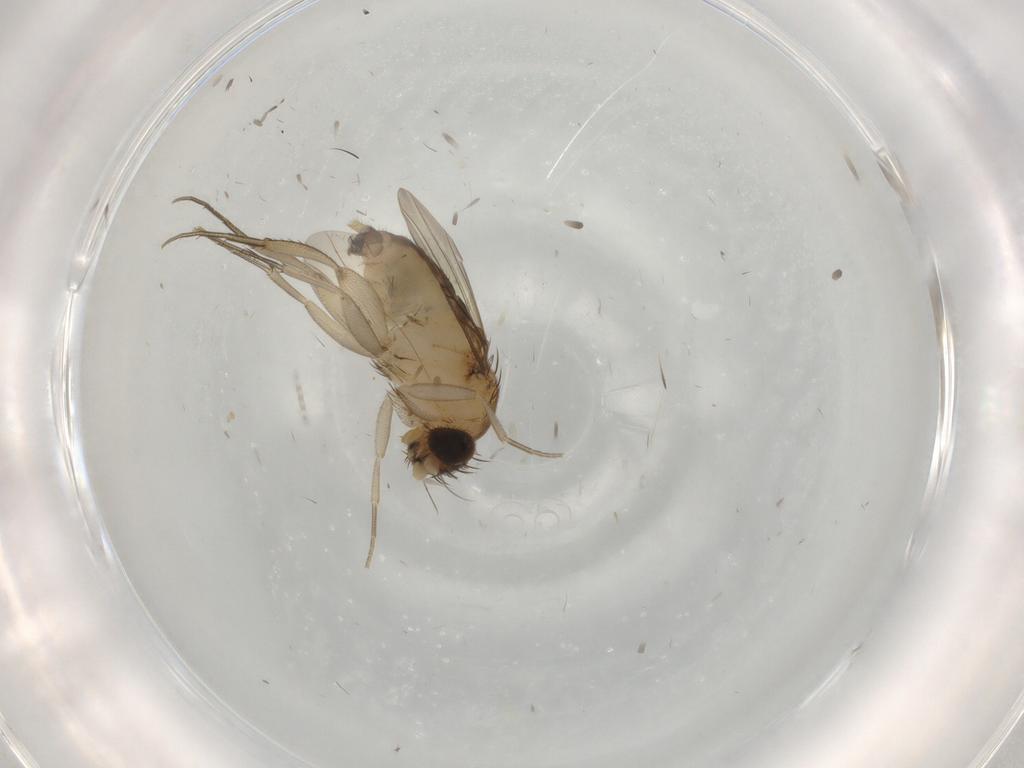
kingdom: Animalia
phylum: Arthropoda
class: Insecta
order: Diptera
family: Phoridae
